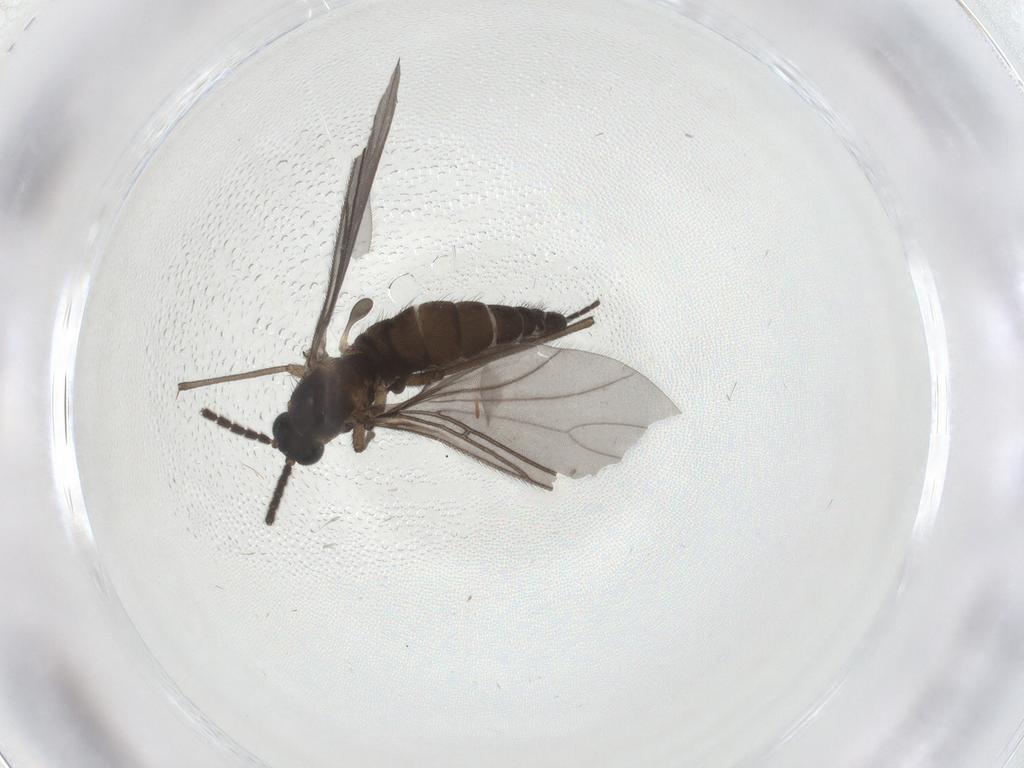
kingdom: Animalia
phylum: Arthropoda
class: Insecta
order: Diptera
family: Sciaridae
